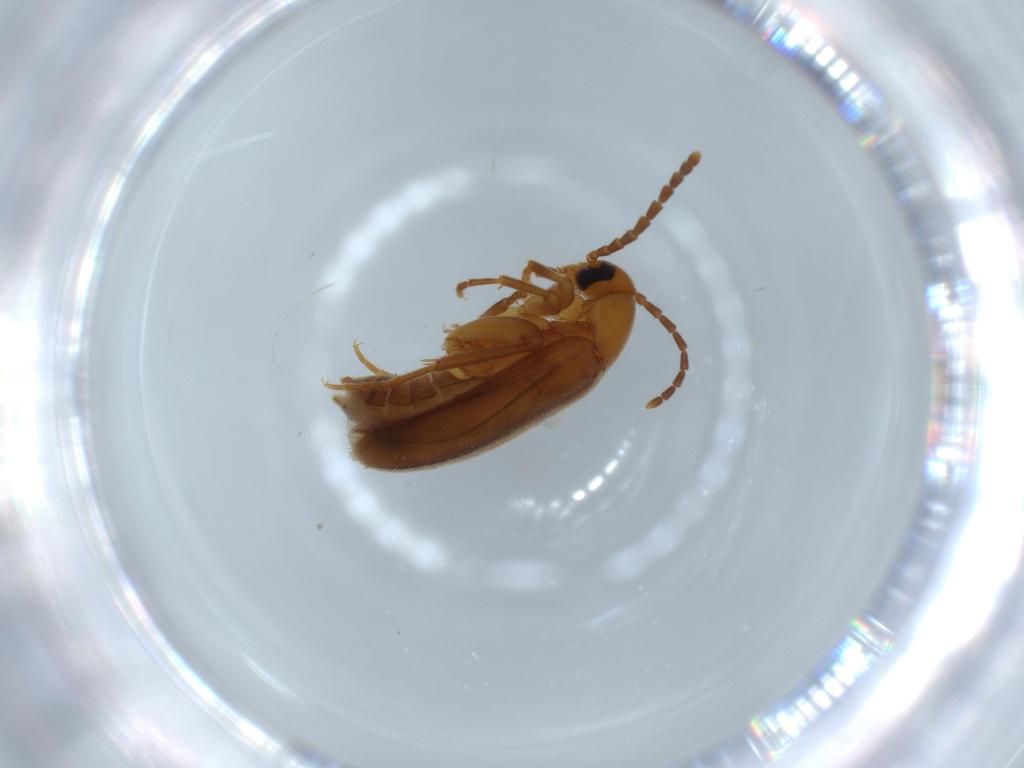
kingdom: Animalia
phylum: Arthropoda
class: Insecta
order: Coleoptera
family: Scraptiidae
